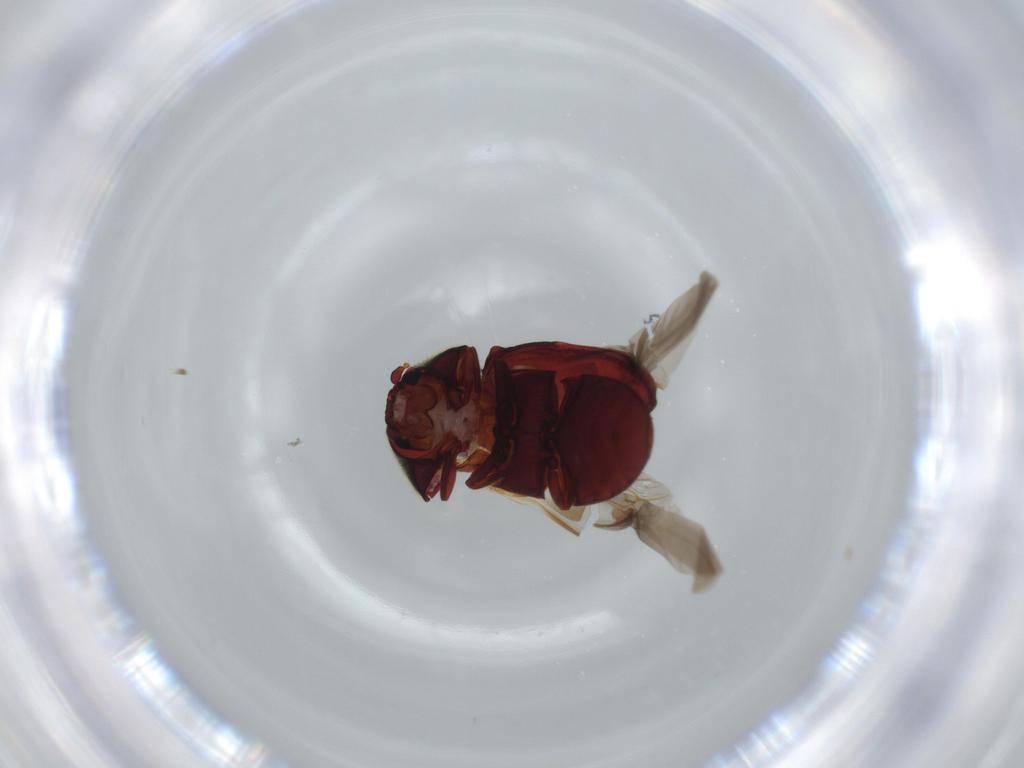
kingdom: Animalia
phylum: Arthropoda
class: Insecta
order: Coleoptera
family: Ptinidae
